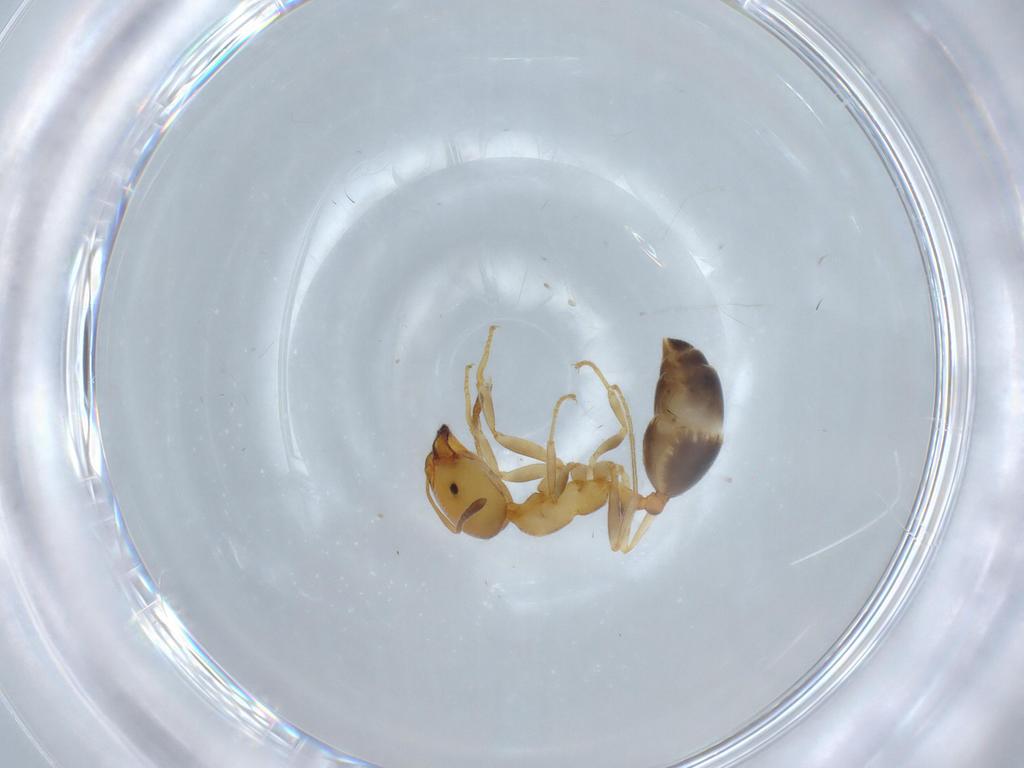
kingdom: Animalia
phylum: Arthropoda
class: Insecta
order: Hymenoptera
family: Formicidae
